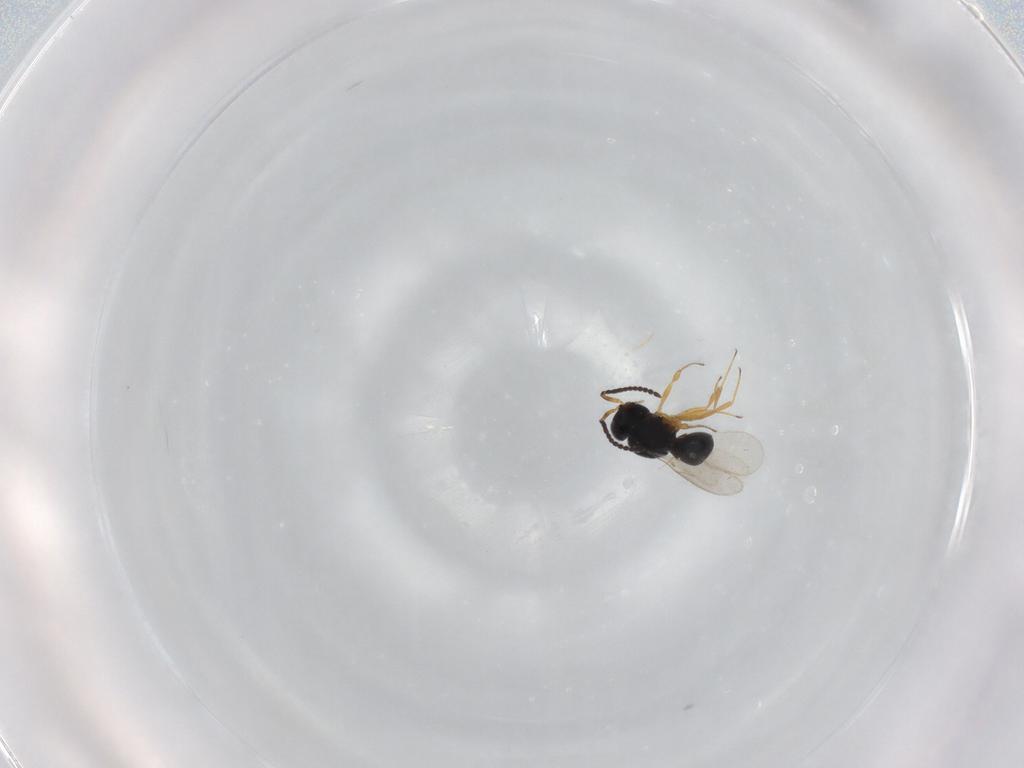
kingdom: Animalia
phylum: Arthropoda
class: Insecta
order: Hymenoptera
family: Scelionidae
